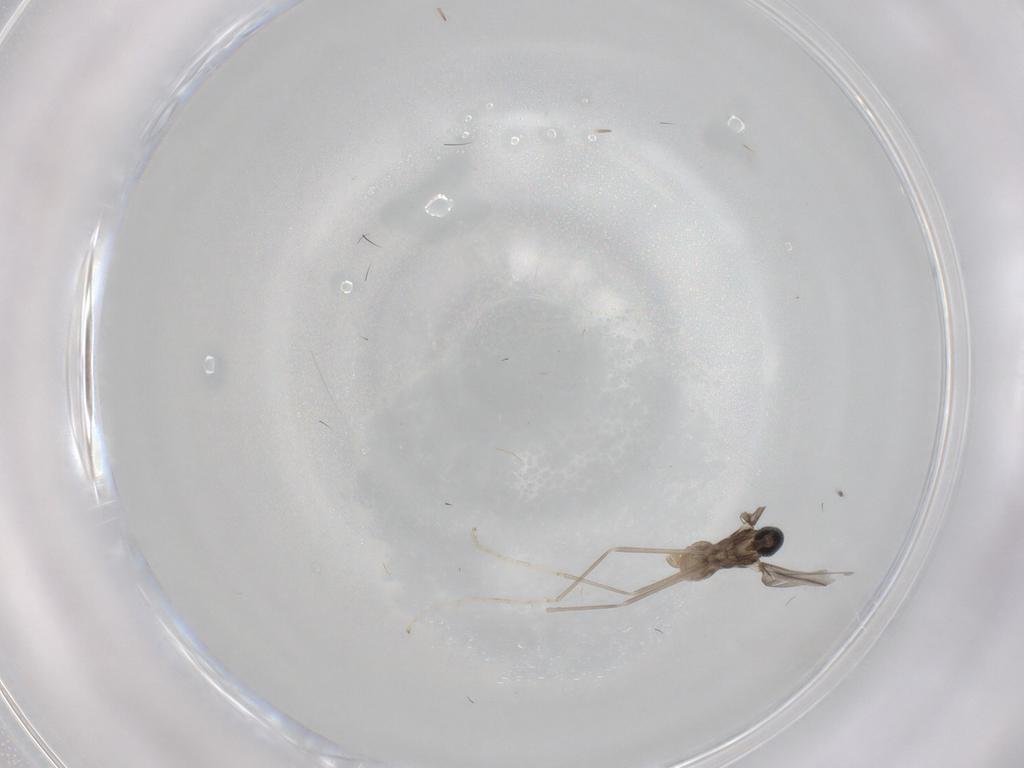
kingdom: Animalia
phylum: Arthropoda
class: Insecta
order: Diptera
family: Cecidomyiidae
